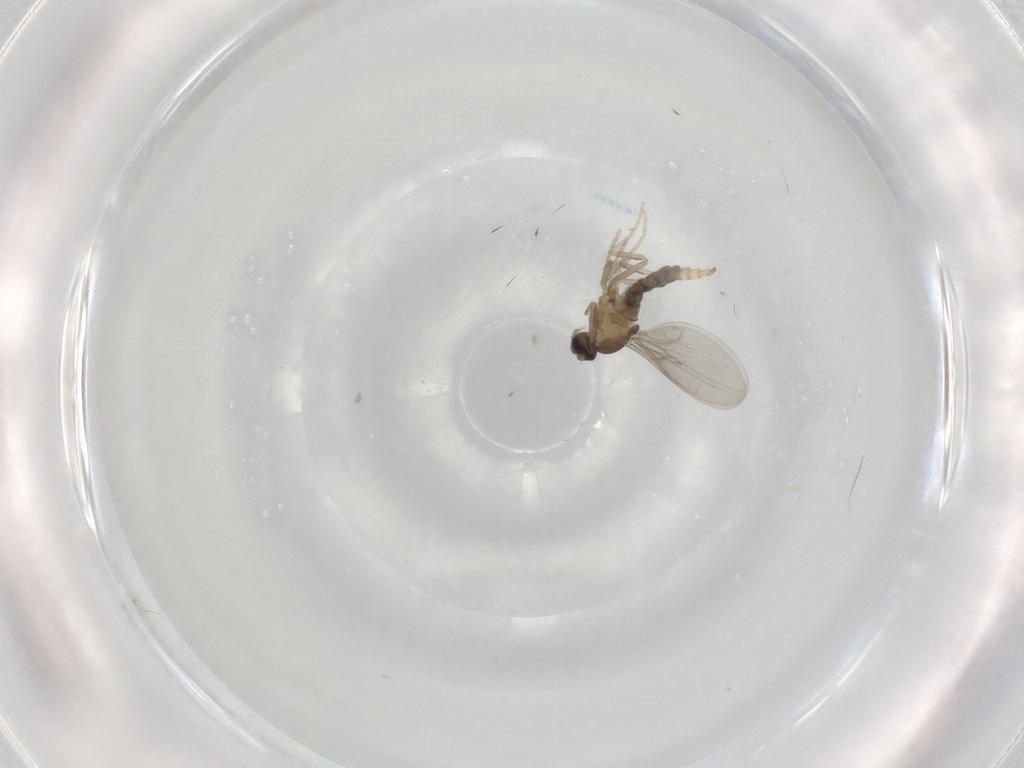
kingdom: Animalia
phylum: Arthropoda
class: Insecta
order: Diptera
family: Cecidomyiidae
